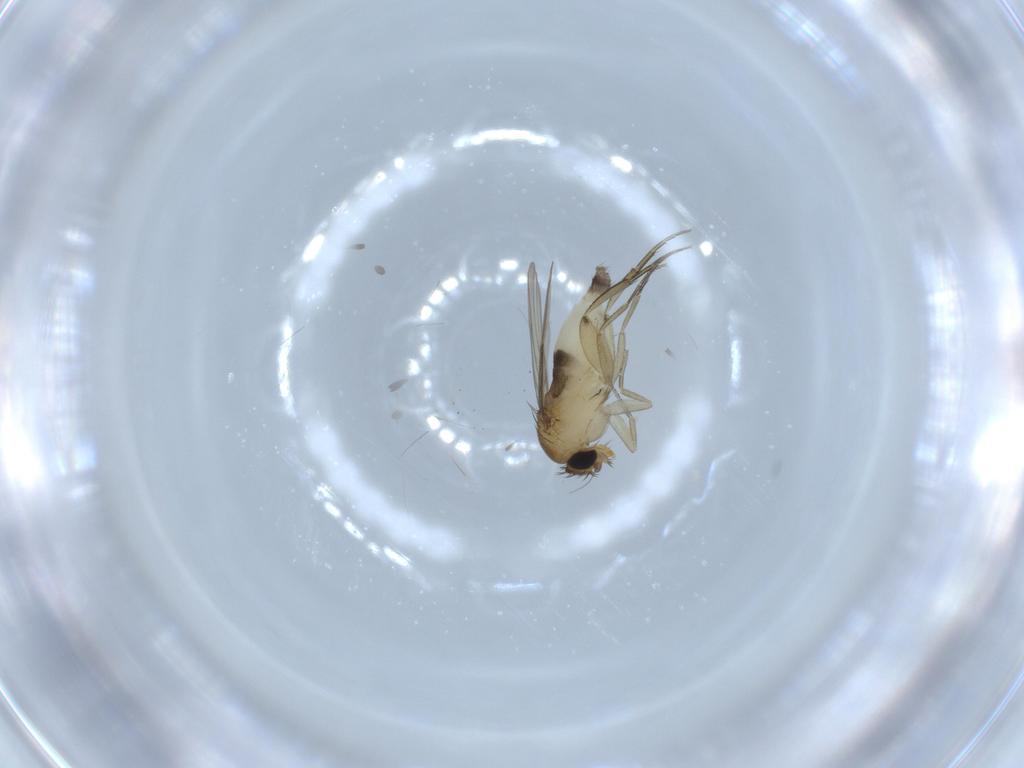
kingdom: Animalia
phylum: Arthropoda
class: Insecta
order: Diptera
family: Phoridae
